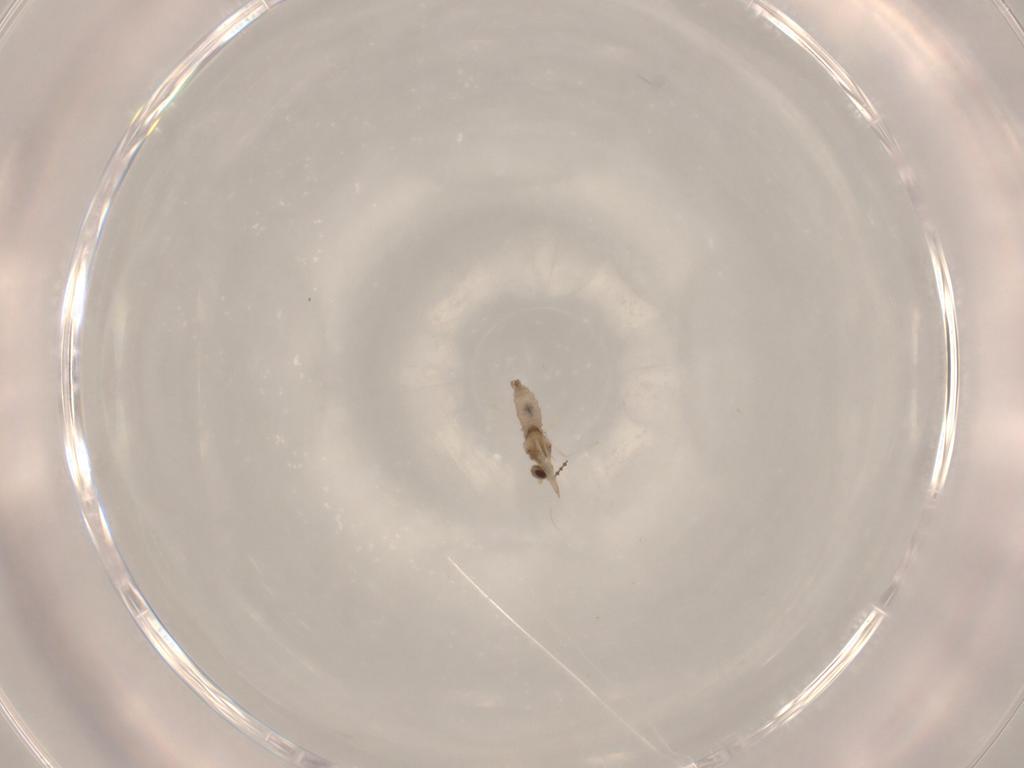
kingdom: Animalia
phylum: Arthropoda
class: Insecta
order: Diptera
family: Cecidomyiidae
